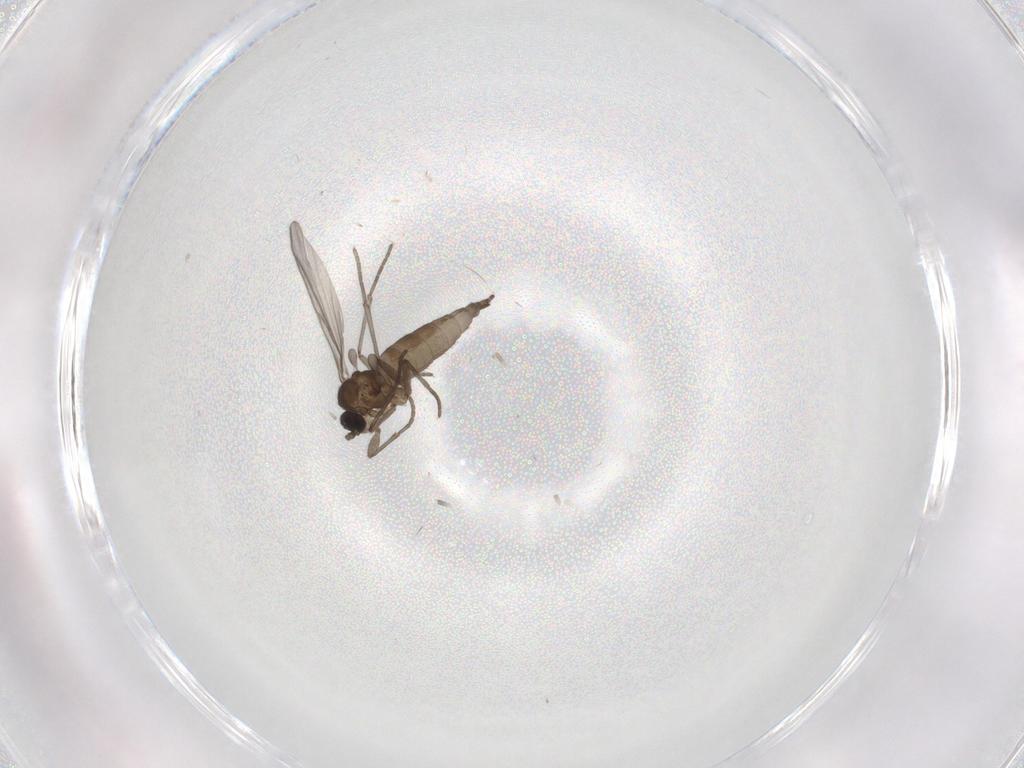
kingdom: Animalia
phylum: Arthropoda
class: Insecta
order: Diptera
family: Sciaridae
